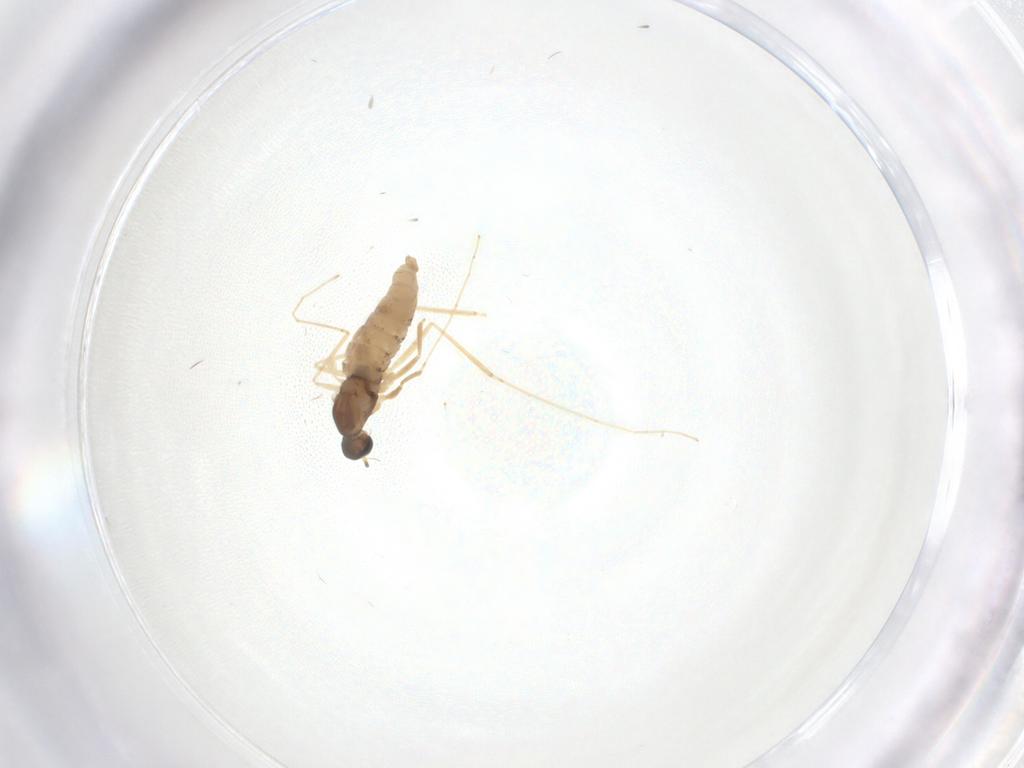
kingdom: Animalia
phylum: Arthropoda
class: Insecta
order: Diptera
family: Cecidomyiidae
